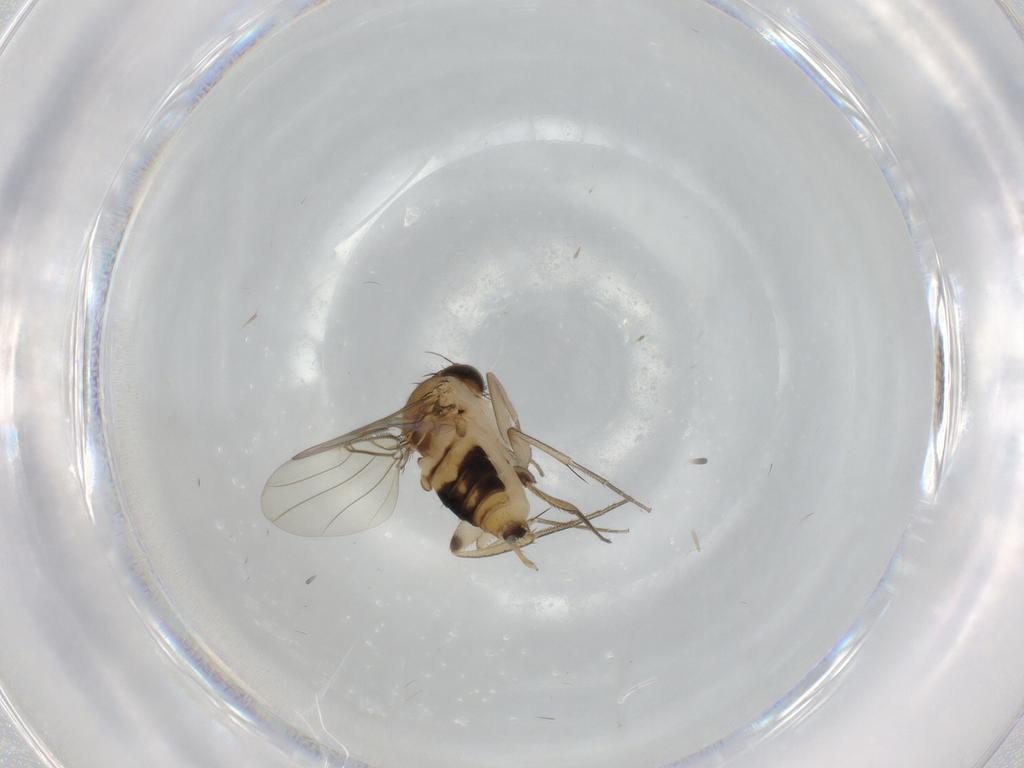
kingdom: Animalia
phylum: Arthropoda
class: Insecta
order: Diptera
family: Phoridae
